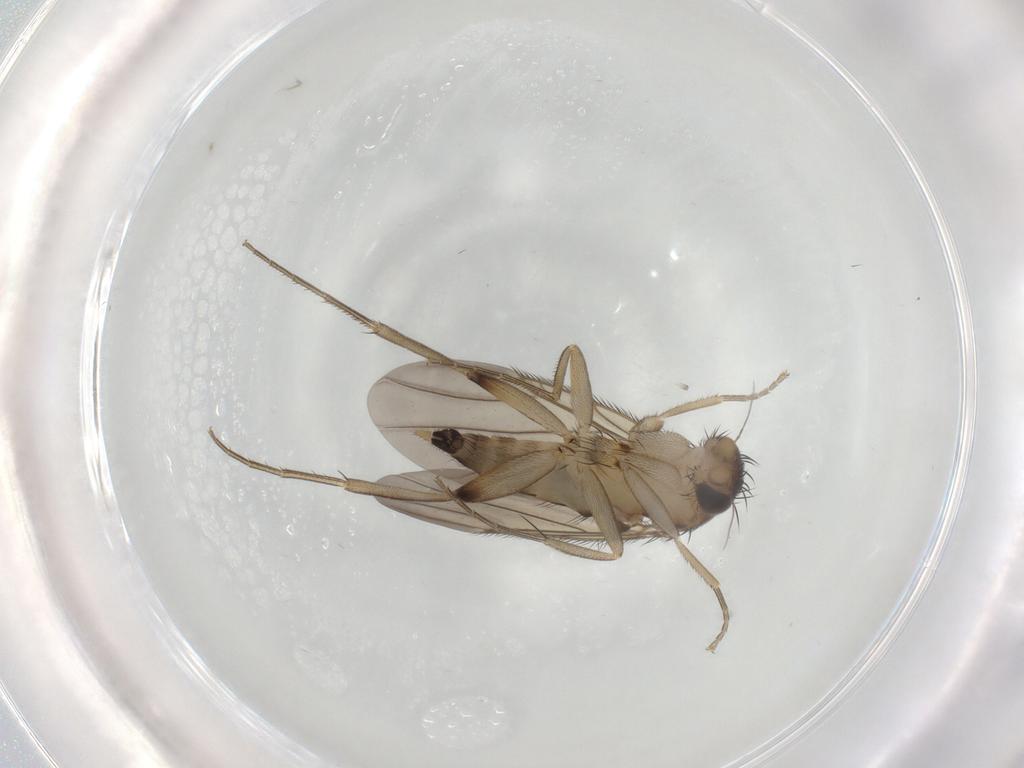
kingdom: Animalia
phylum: Arthropoda
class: Insecta
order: Diptera
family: Phoridae
